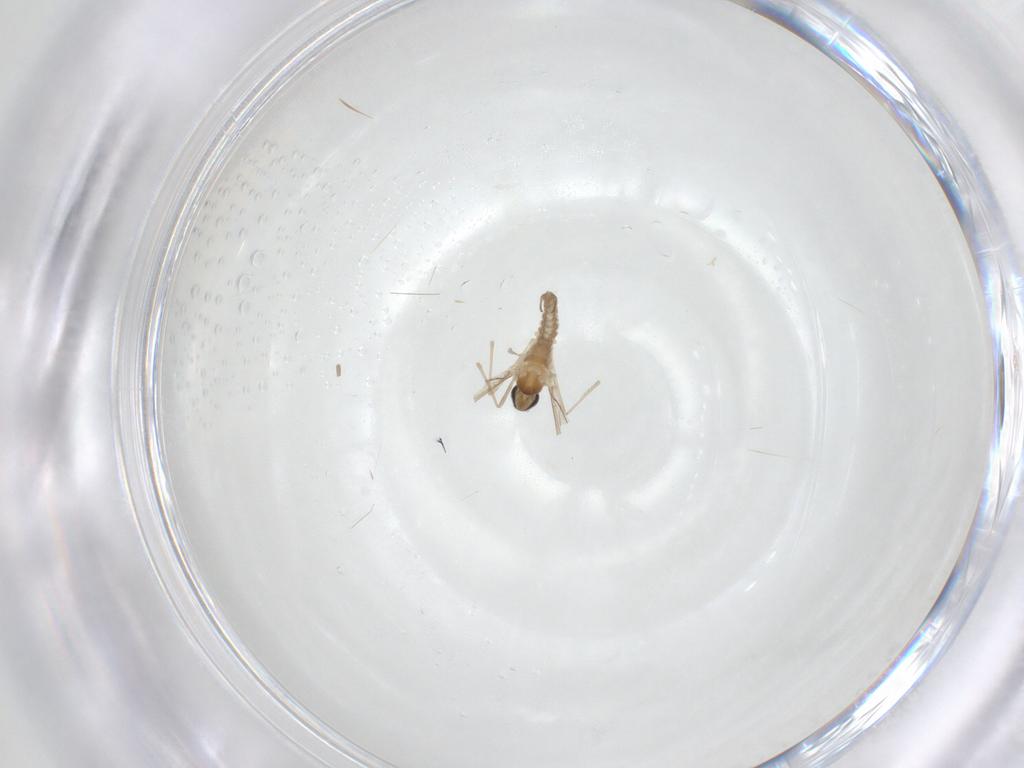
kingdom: Animalia
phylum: Arthropoda
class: Insecta
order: Diptera
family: Cecidomyiidae
